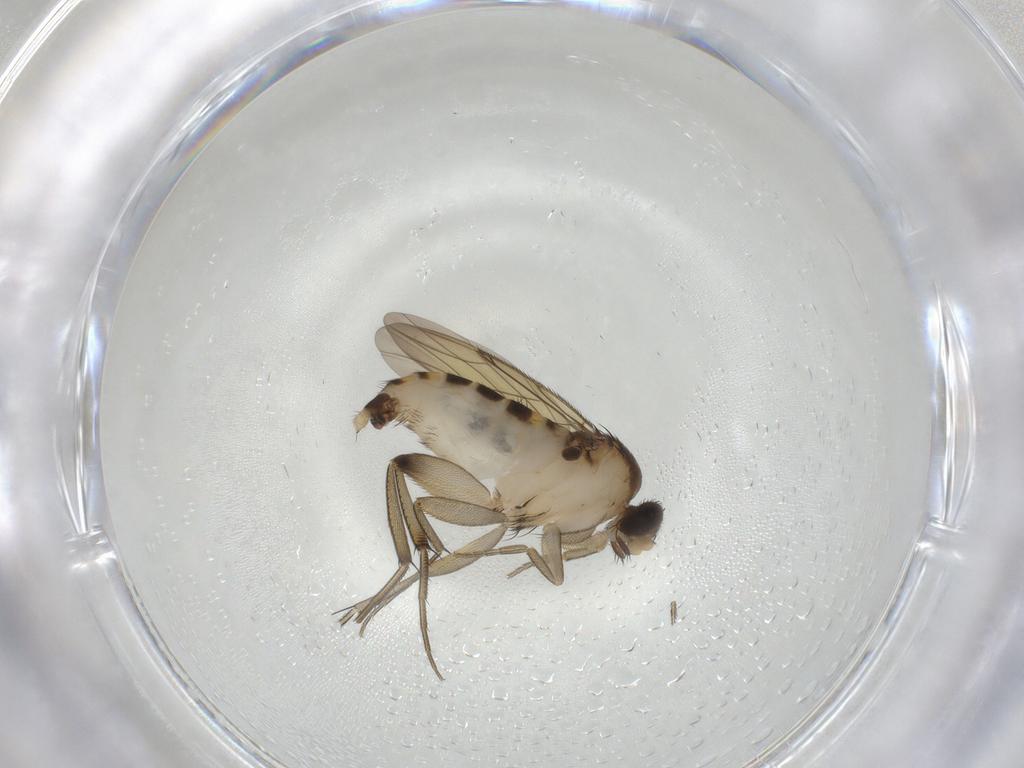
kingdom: Animalia
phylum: Arthropoda
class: Insecta
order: Diptera
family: Phoridae
